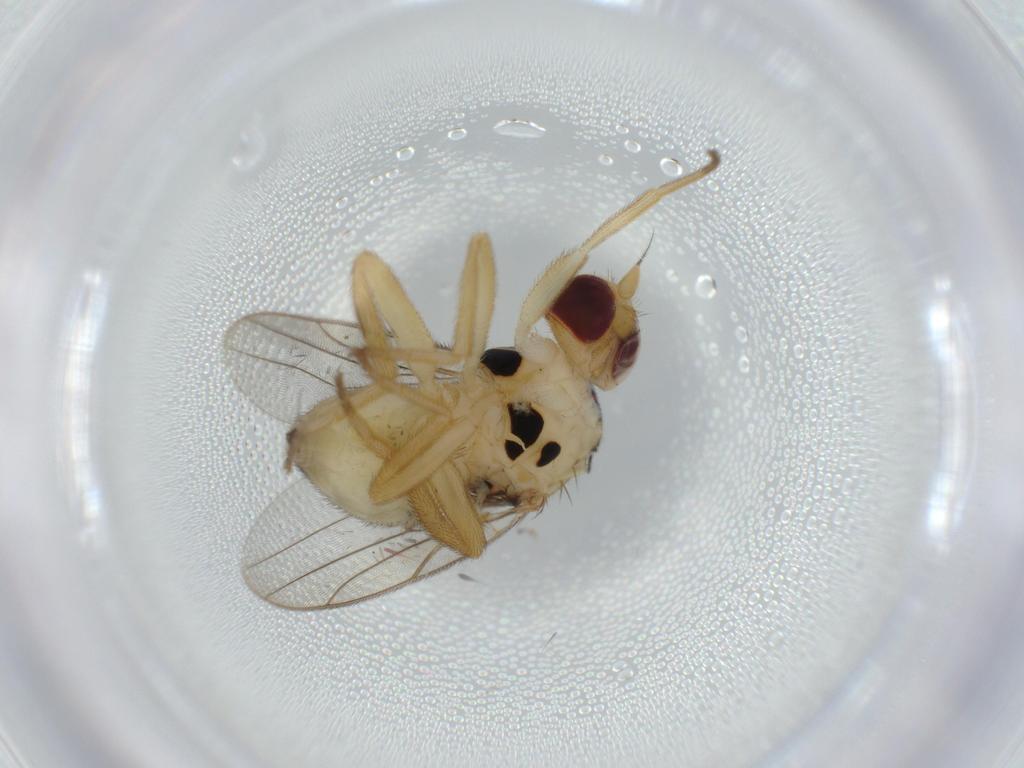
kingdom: Animalia
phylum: Arthropoda
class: Insecta
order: Diptera
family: Chloropidae
